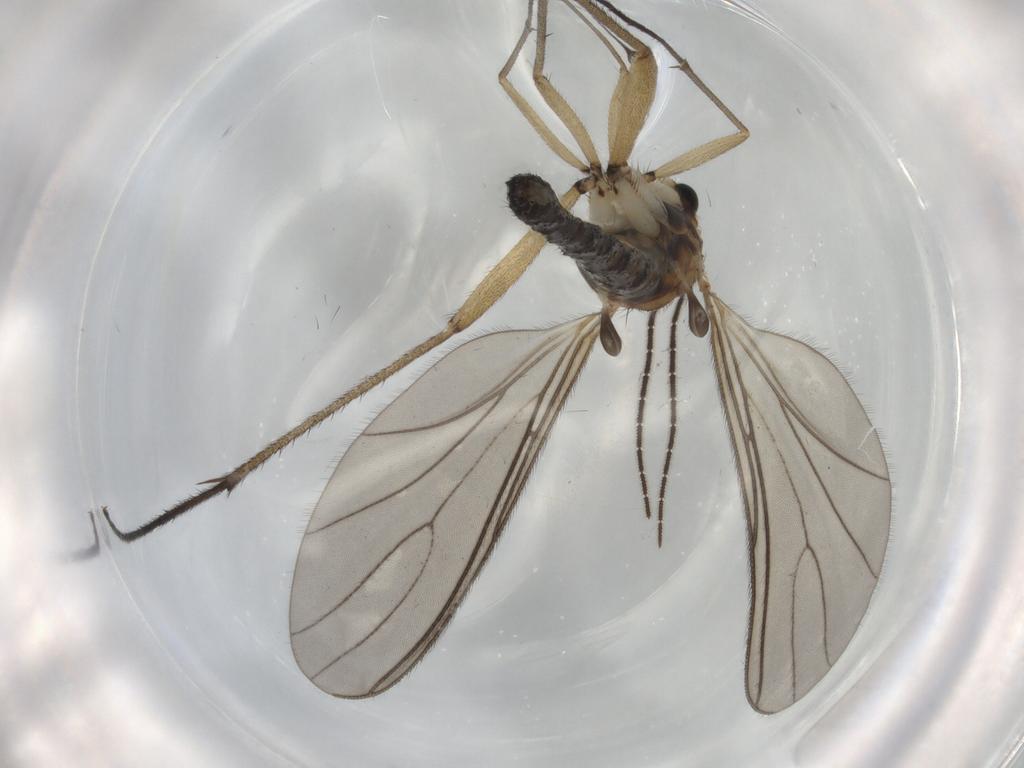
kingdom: Animalia
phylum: Arthropoda
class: Insecta
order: Diptera
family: Sciaridae
